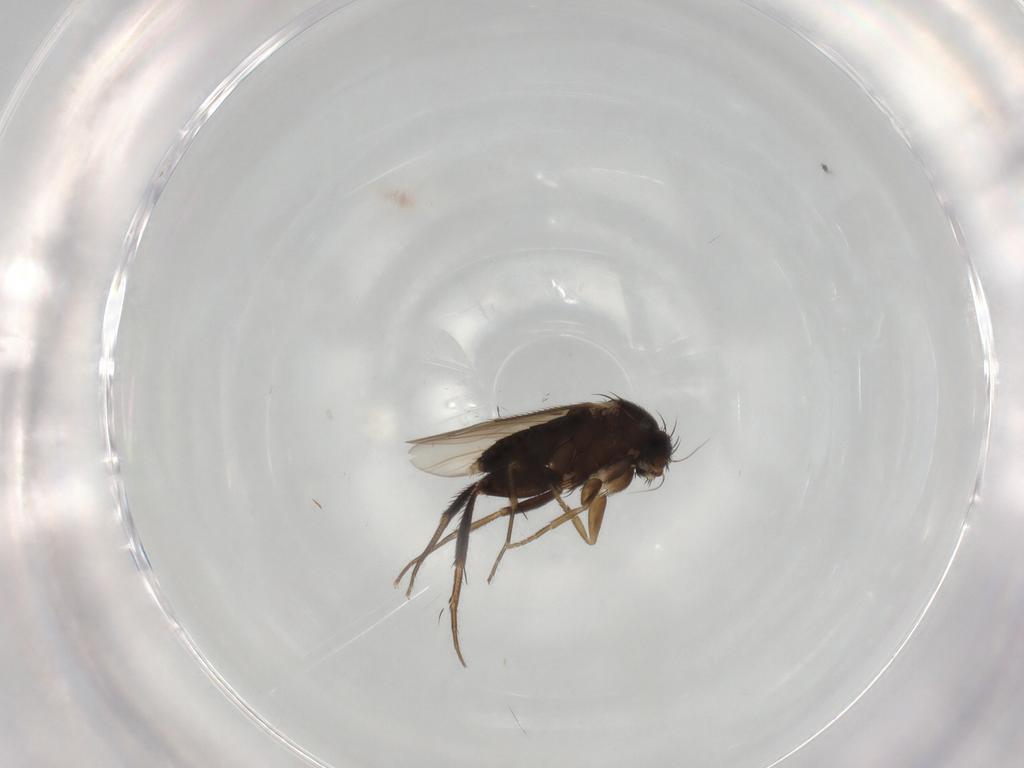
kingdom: Animalia
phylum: Arthropoda
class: Insecta
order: Diptera
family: Phoridae
